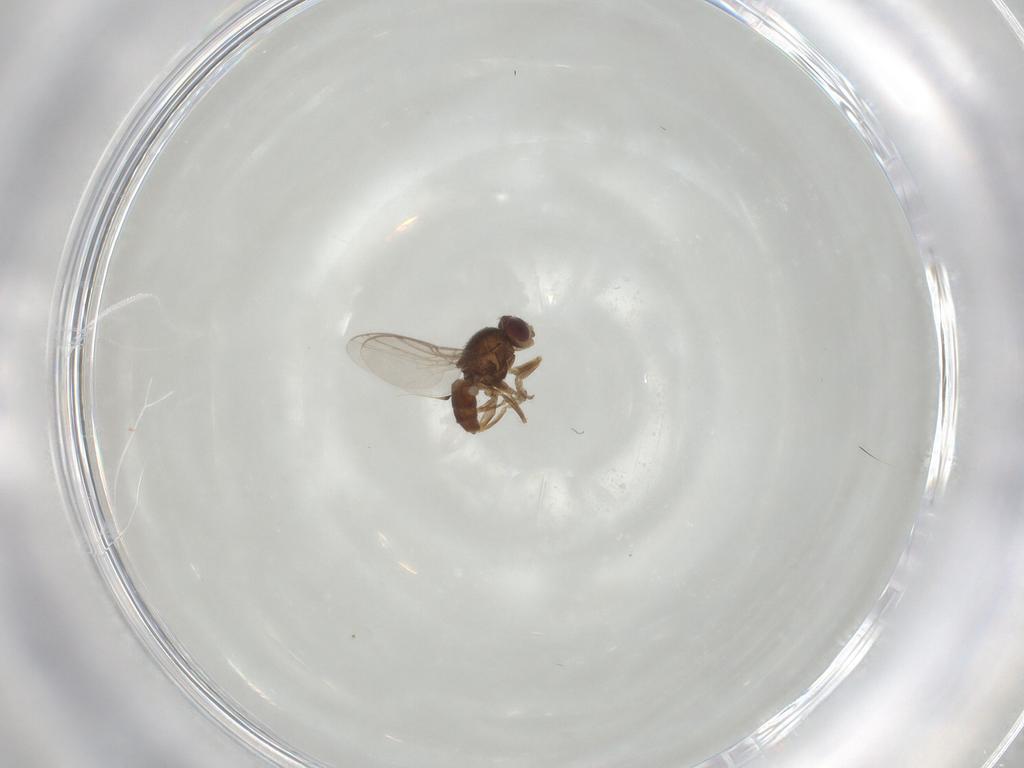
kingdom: Animalia
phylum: Arthropoda
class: Insecta
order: Diptera
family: Chloropidae
